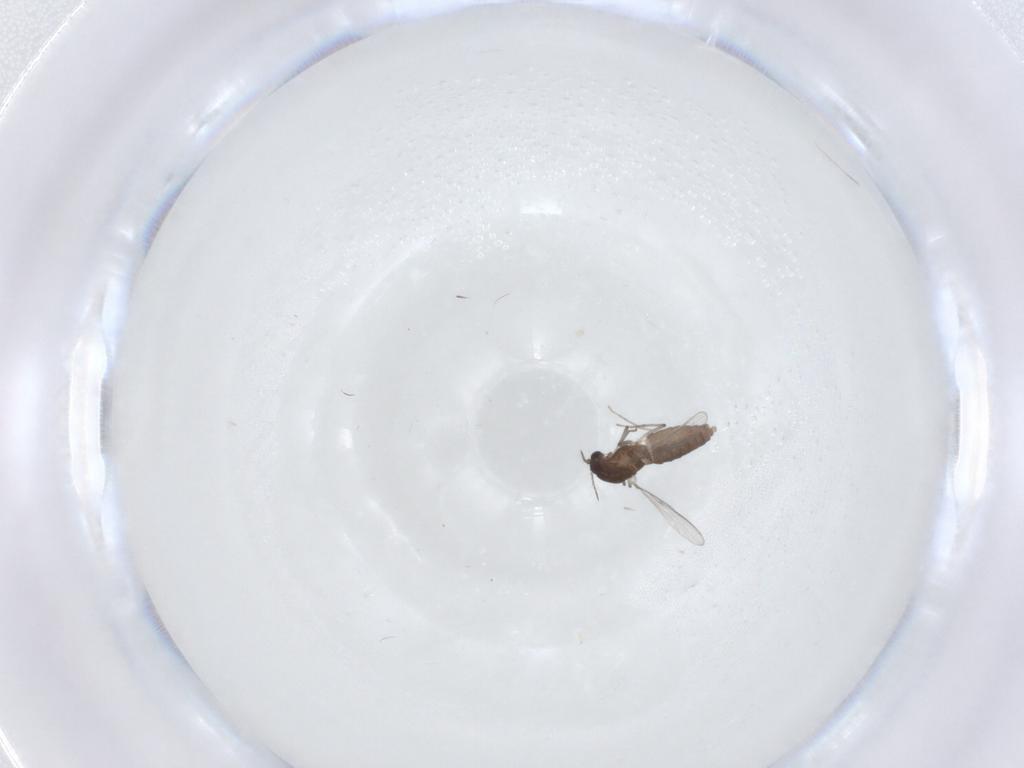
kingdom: Animalia
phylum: Arthropoda
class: Insecta
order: Diptera
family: Chironomidae
